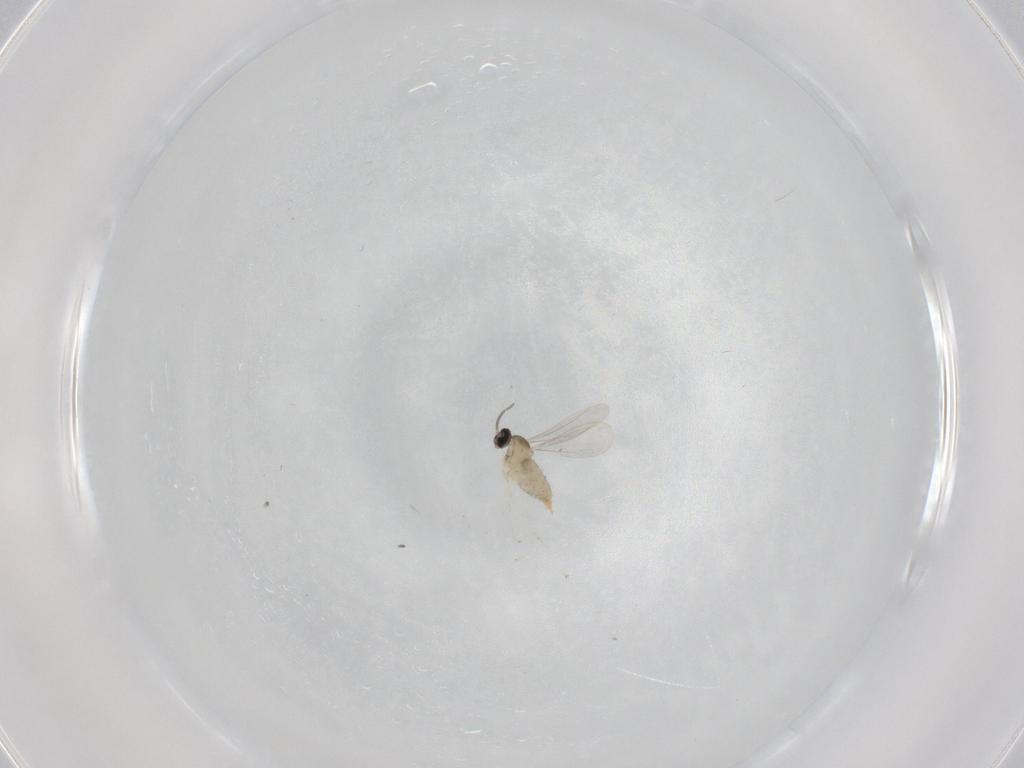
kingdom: Animalia
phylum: Arthropoda
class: Insecta
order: Diptera
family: Cecidomyiidae
